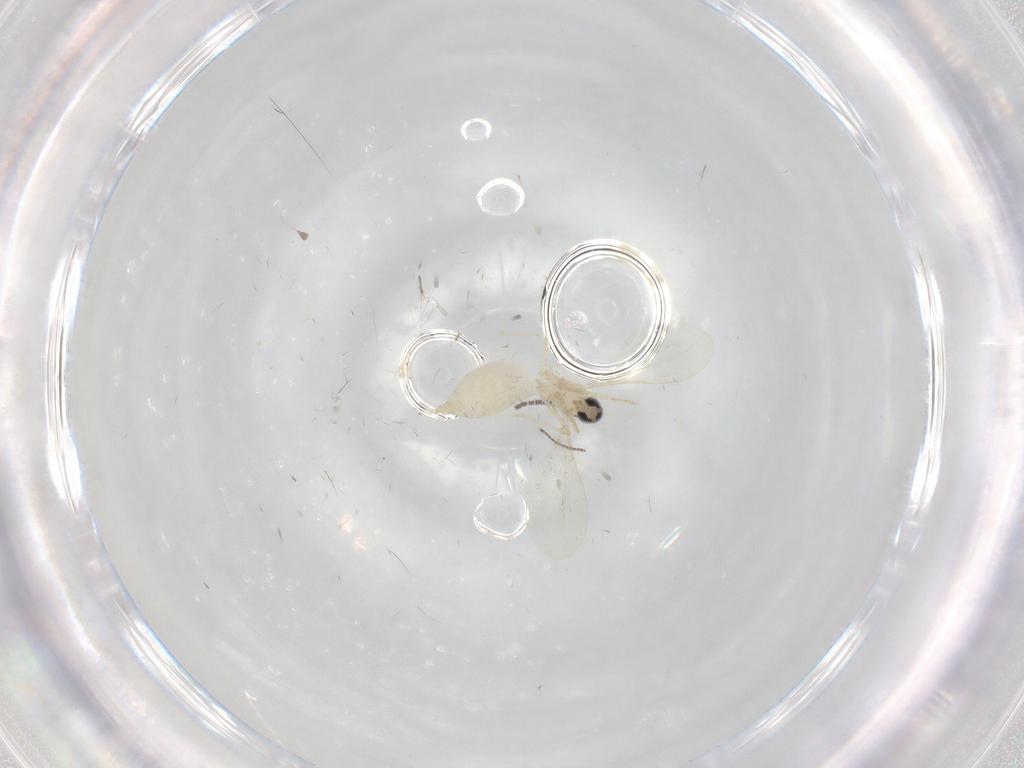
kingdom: Animalia
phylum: Arthropoda
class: Insecta
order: Diptera
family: Cecidomyiidae
